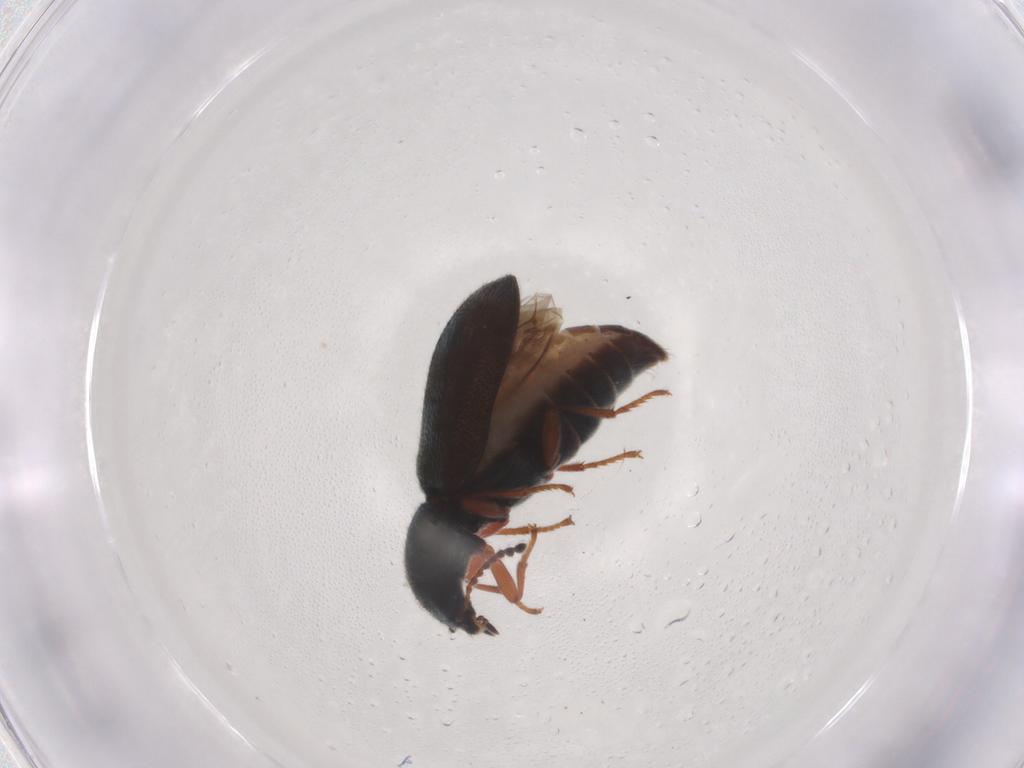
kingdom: Animalia
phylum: Arthropoda
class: Insecta
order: Coleoptera
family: Melyridae
